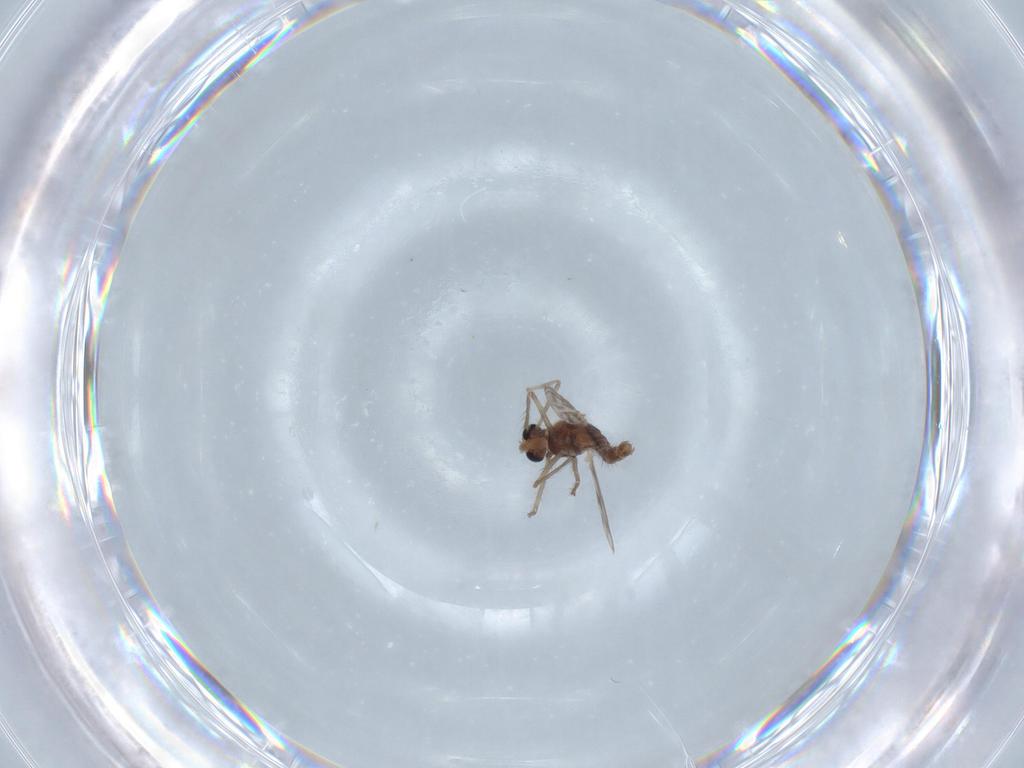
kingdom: Animalia
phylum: Arthropoda
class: Insecta
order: Diptera
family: Chironomidae
